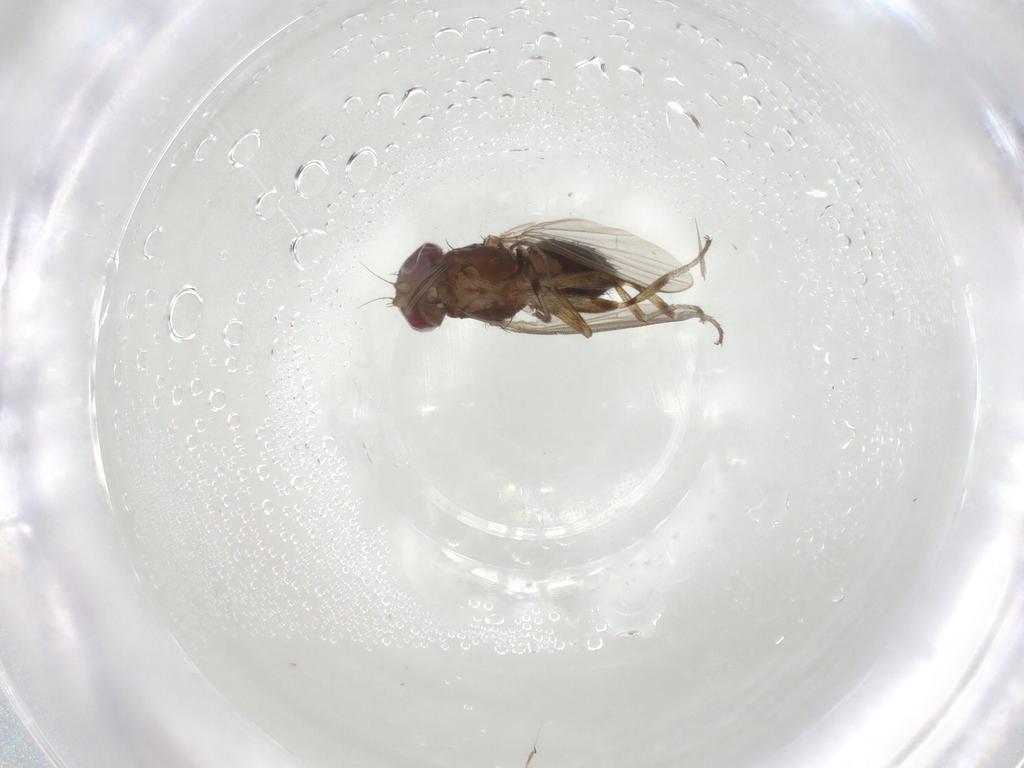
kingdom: Animalia
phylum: Arthropoda
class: Insecta
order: Diptera
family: Heleomyzidae
